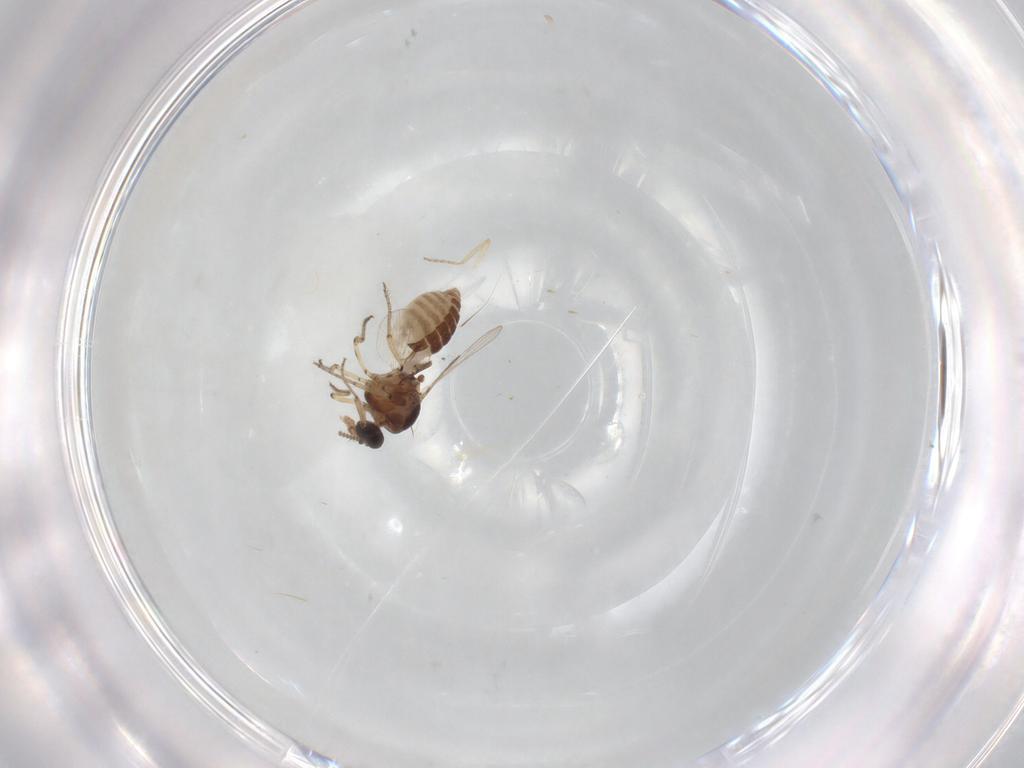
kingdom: Animalia
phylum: Arthropoda
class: Insecta
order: Diptera
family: Ceratopogonidae
